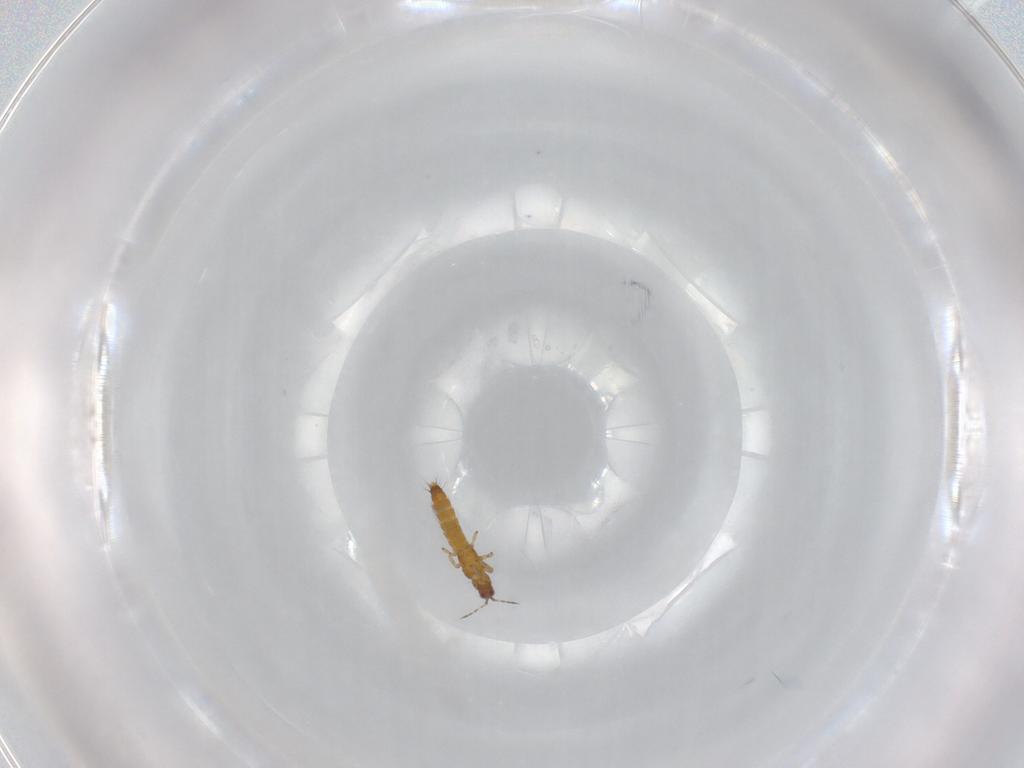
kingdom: Animalia
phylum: Arthropoda
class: Insecta
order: Thysanoptera
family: Thripidae
